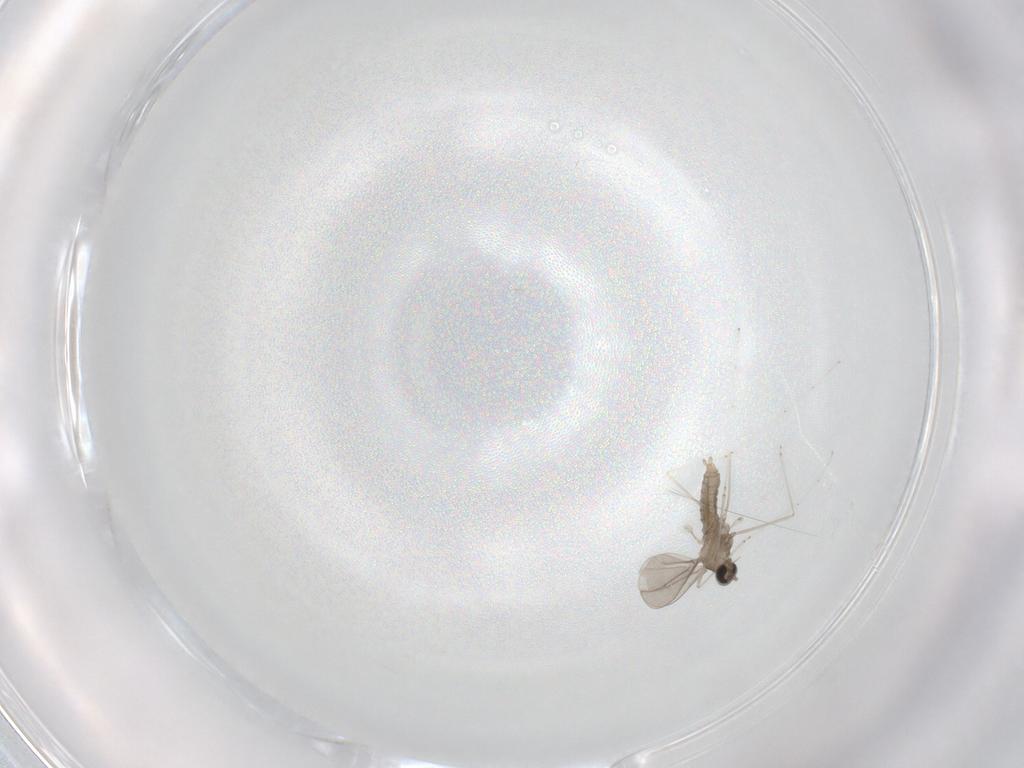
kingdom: Animalia
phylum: Arthropoda
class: Insecta
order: Diptera
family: Cecidomyiidae
